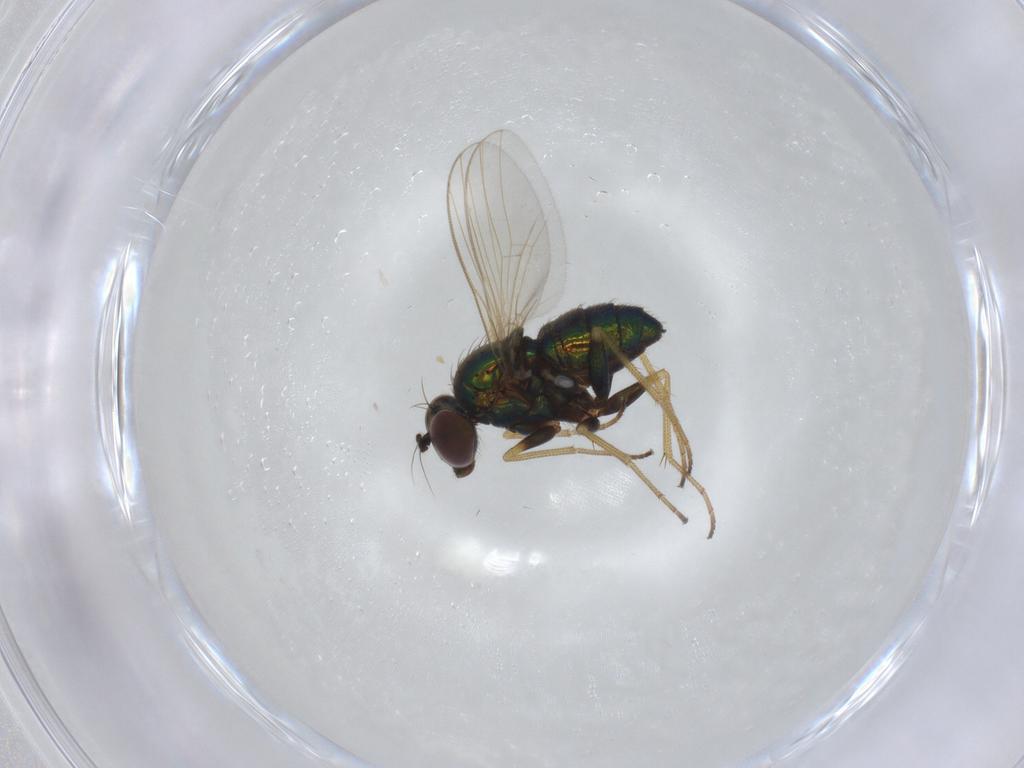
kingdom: Animalia
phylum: Arthropoda
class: Insecta
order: Diptera
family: Dolichopodidae
